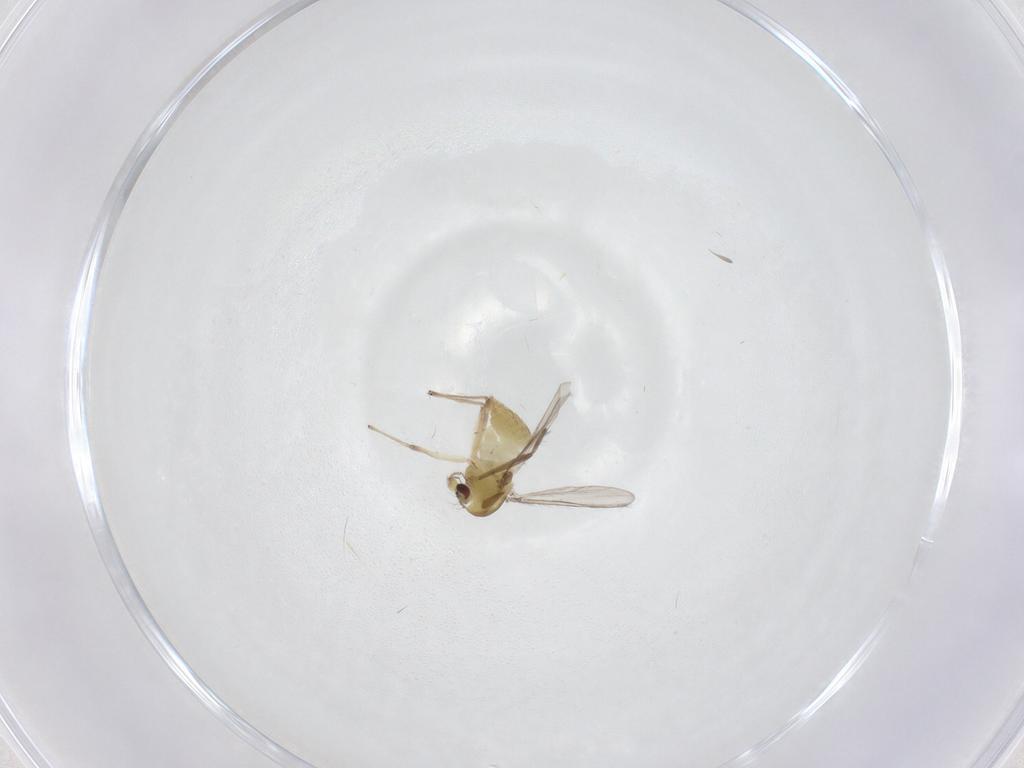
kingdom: Animalia
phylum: Arthropoda
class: Insecta
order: Diptera
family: Chironomidae
